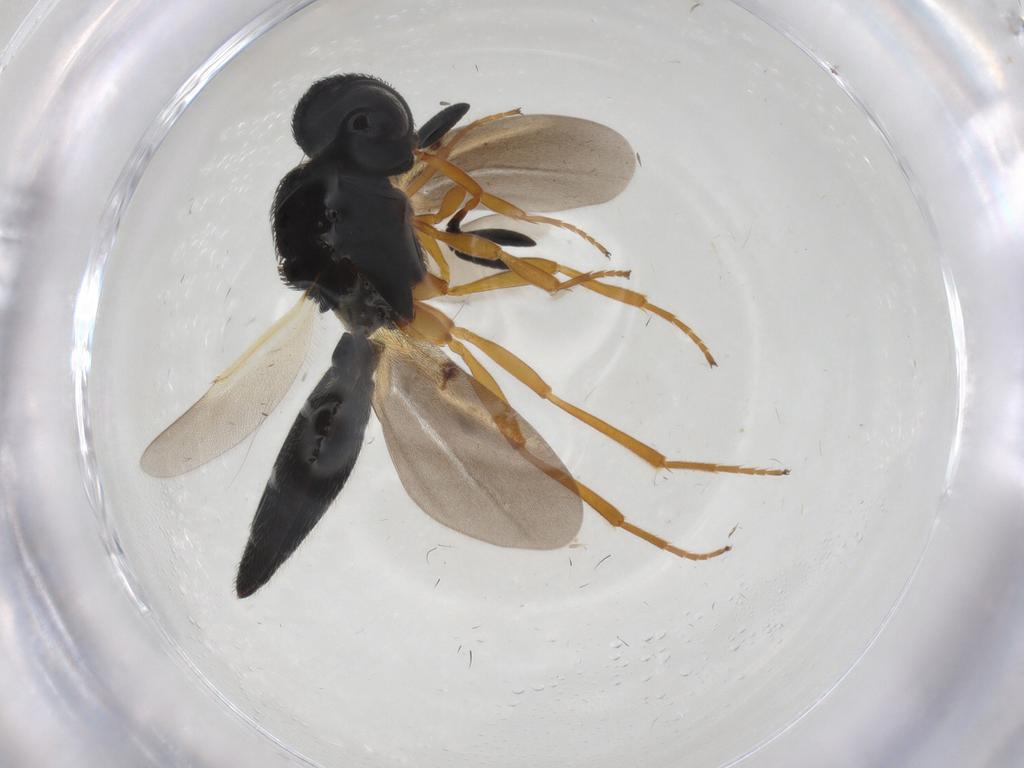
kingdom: Animalia
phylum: Arthropoda
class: Insecta
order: Hymenoptera
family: Scelionidae
